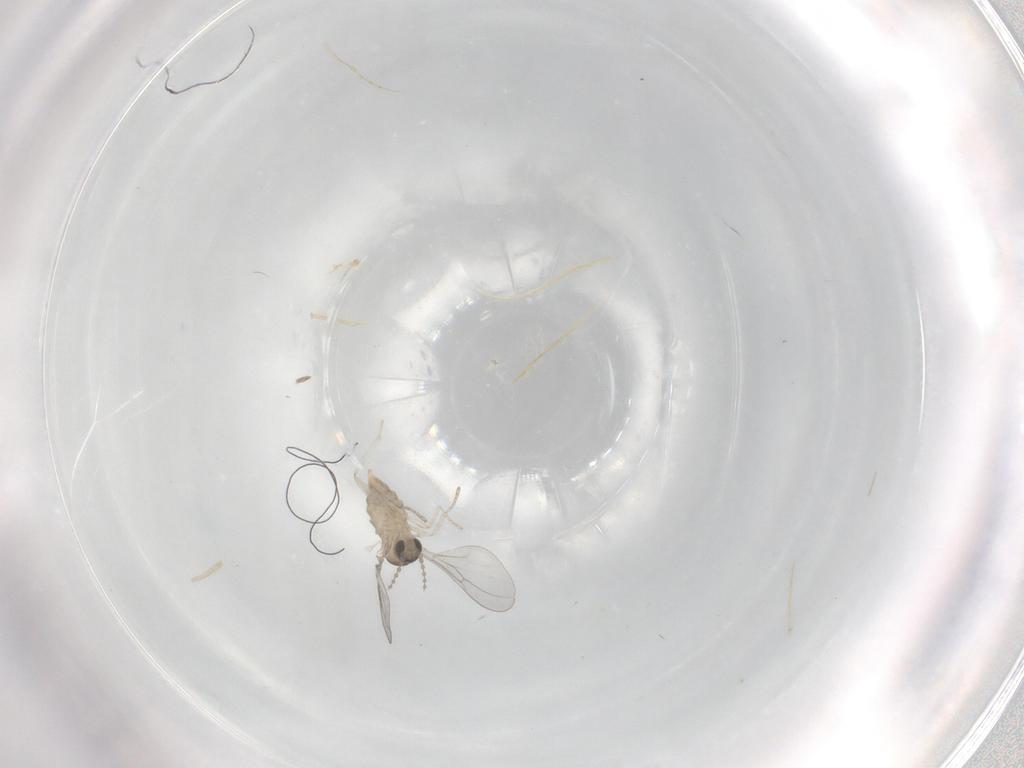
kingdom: Animalia
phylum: Arthropoda
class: Insecta
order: Diptera
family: Cecidomyiidae
